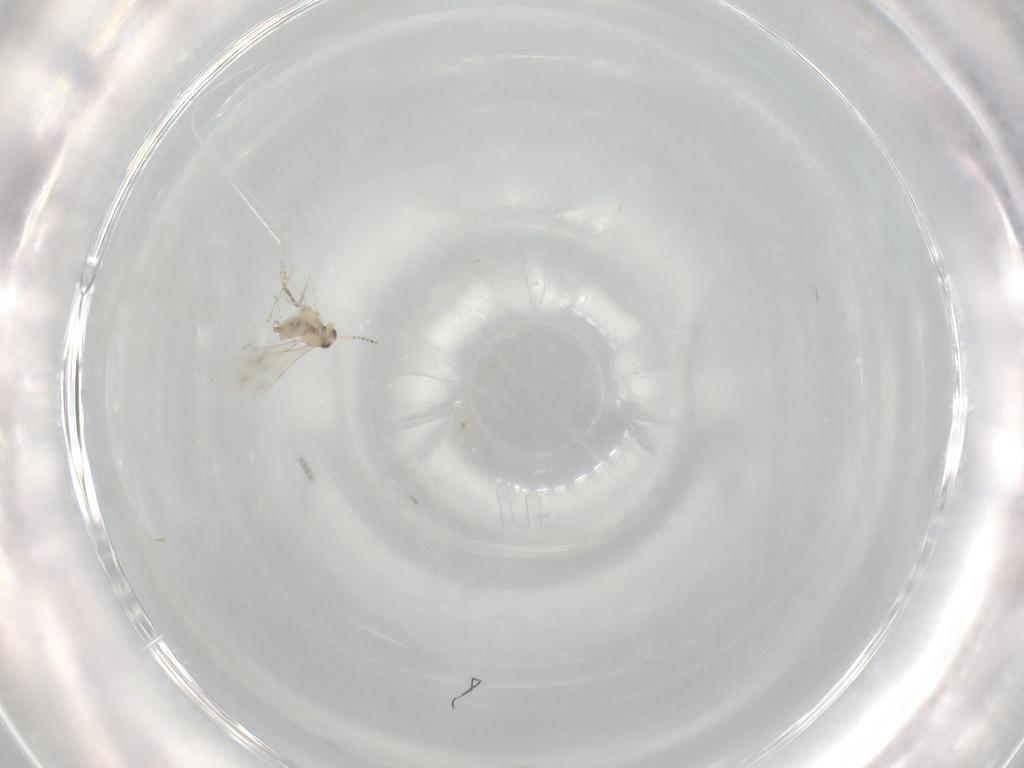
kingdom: Animalia
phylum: Arthropoda
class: Insecta
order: Diptera
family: Cecidomyiidae
